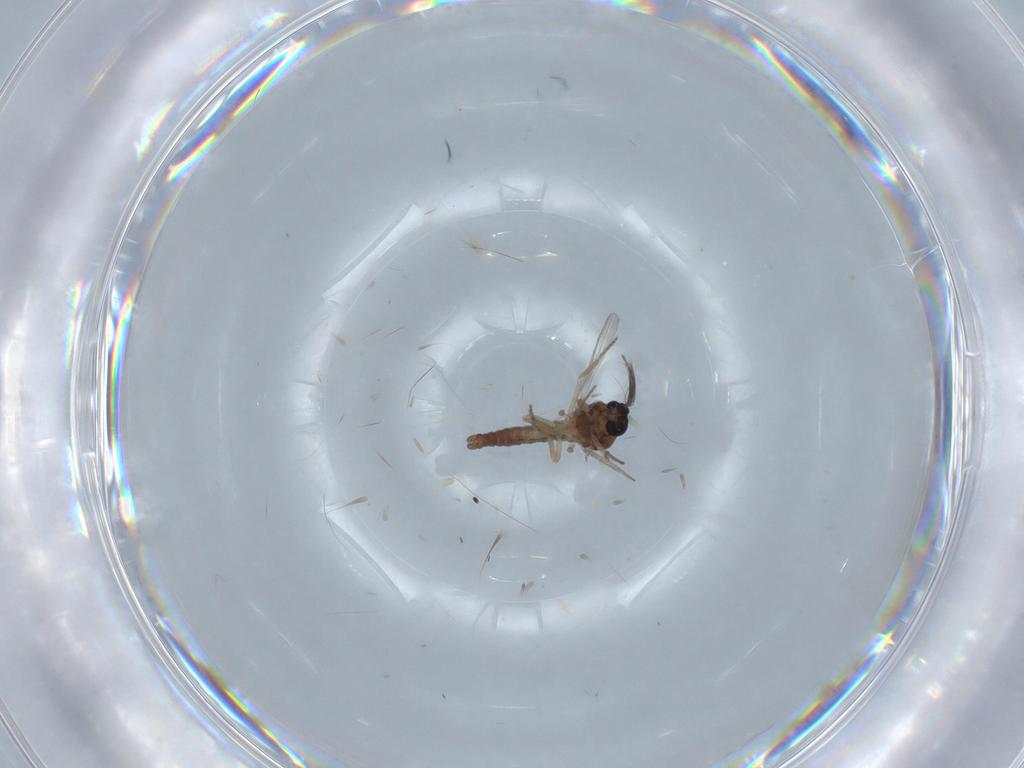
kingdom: Animalia
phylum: Arthropoda
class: Insecta
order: Diptera
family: Ceratopogonidae
